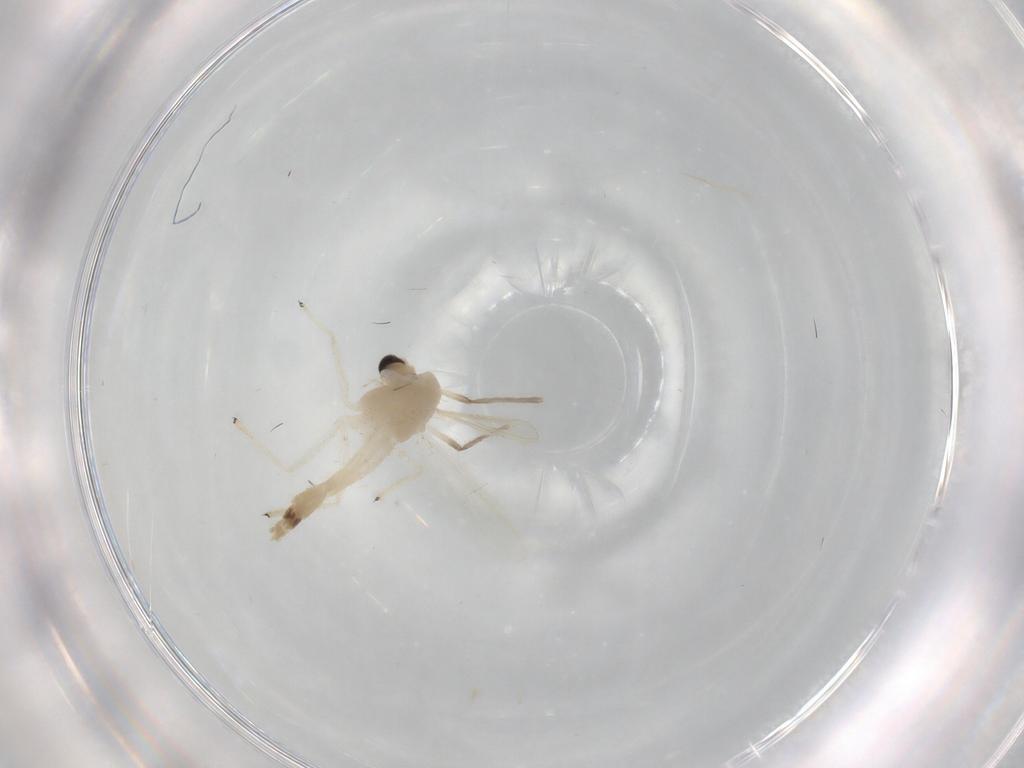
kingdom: Animalia
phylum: Arthropoda
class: Insecta
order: Diptera
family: Chironomidae
